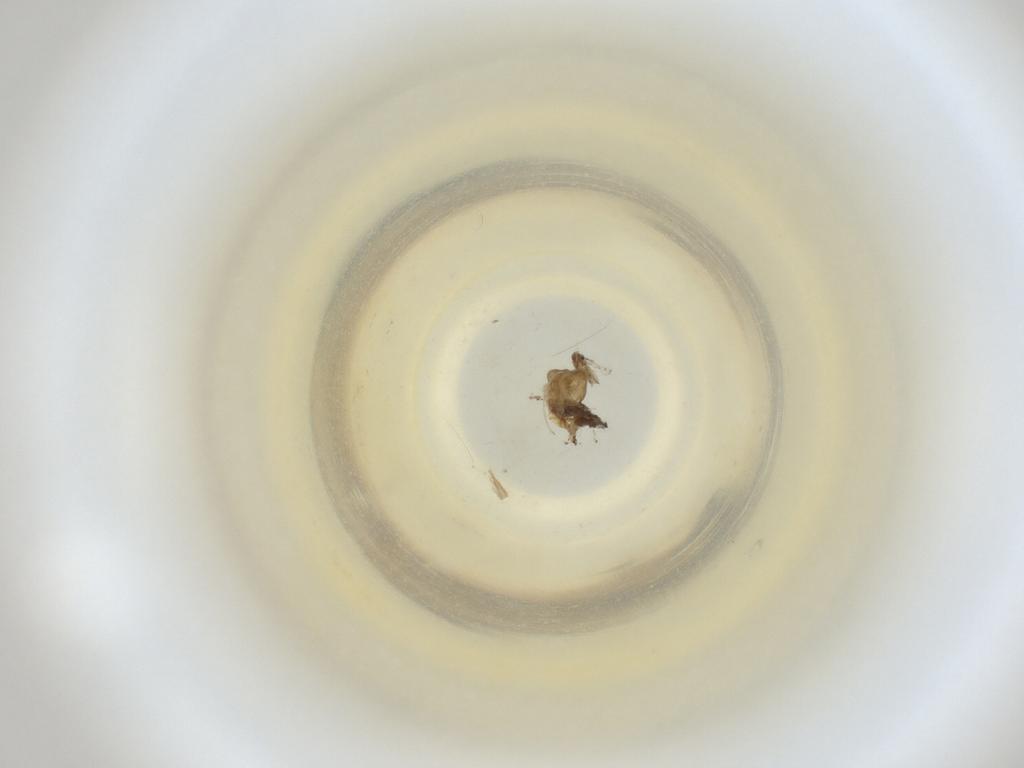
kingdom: Animalia
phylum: Arthropoda
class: Insecta
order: Diptera
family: Cecidomyiidae
